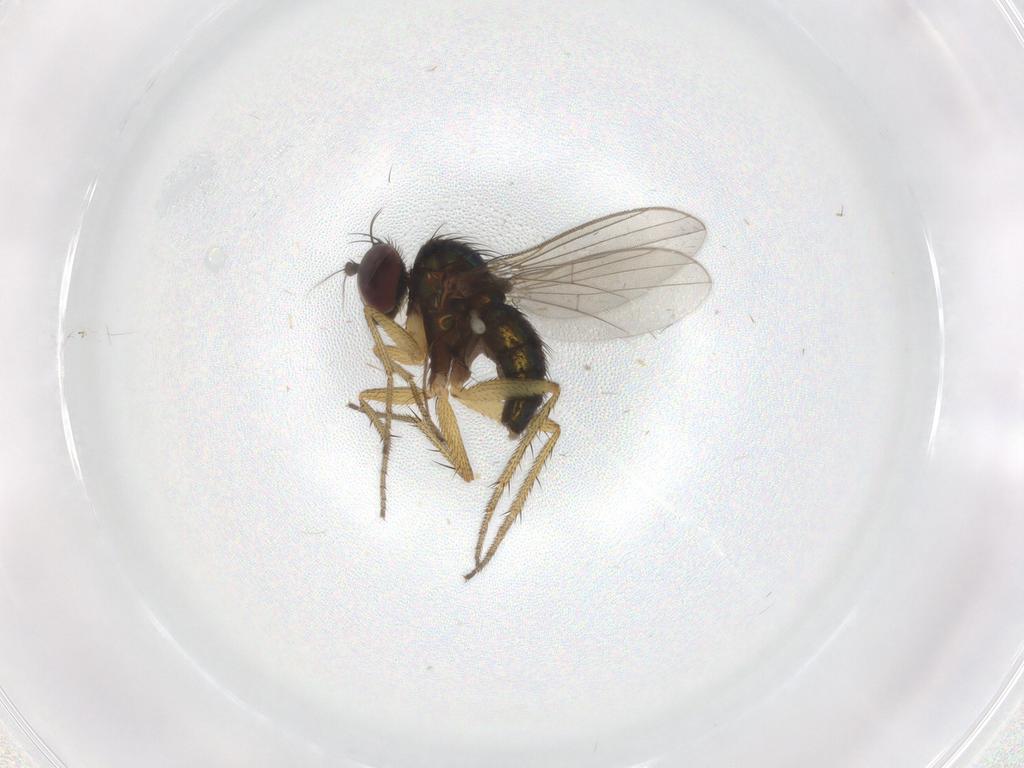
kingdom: Animalia
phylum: Arthropoda
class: Insecta
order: Diptera
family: Dolichopodidae
